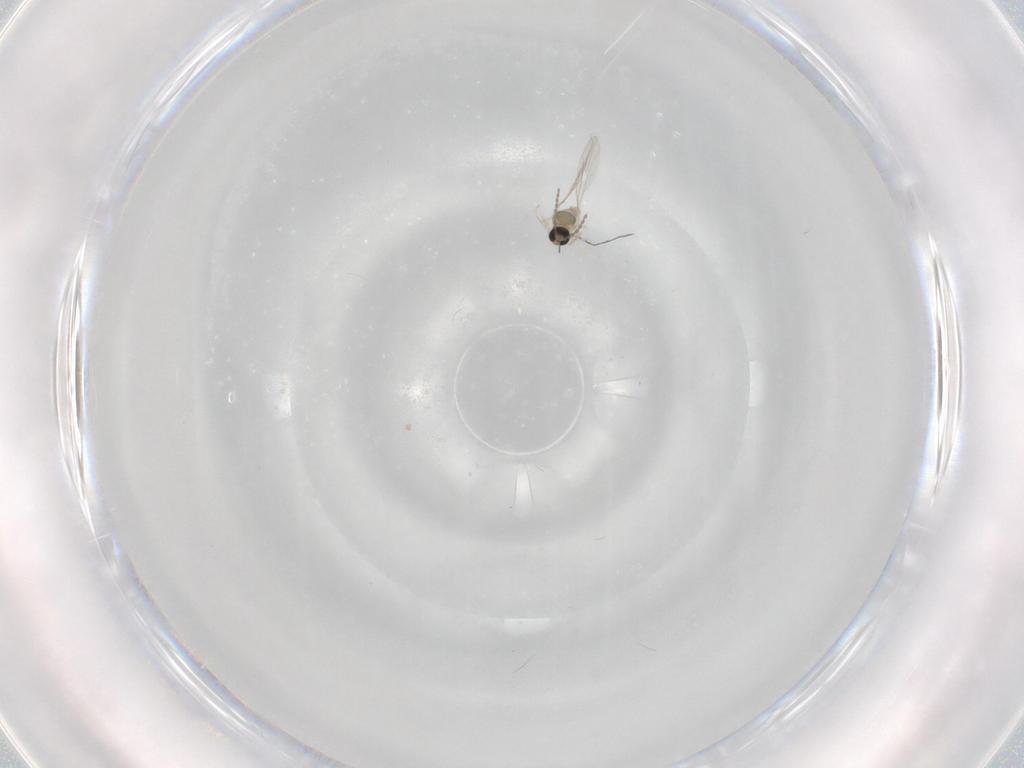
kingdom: Animalia
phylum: Arthropoda
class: Insecta
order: Diptera
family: Cecidomyiidae
